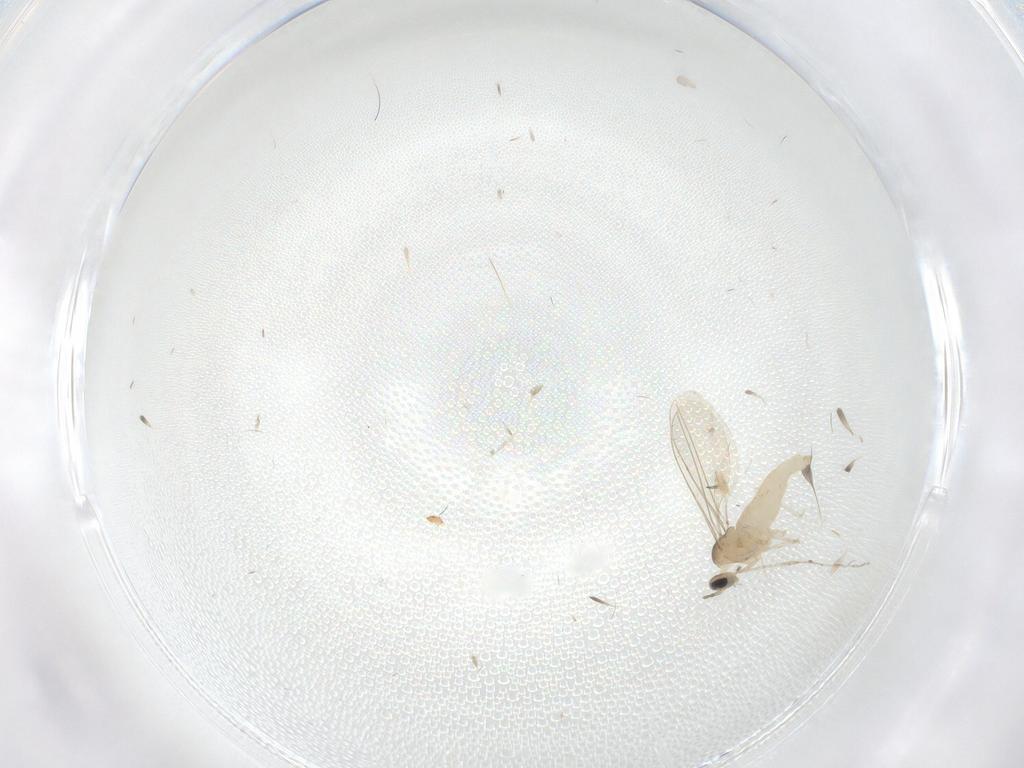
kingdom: Animalia
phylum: Arthropoda
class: Insecta
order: Diptera
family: Cecidomyiidae
